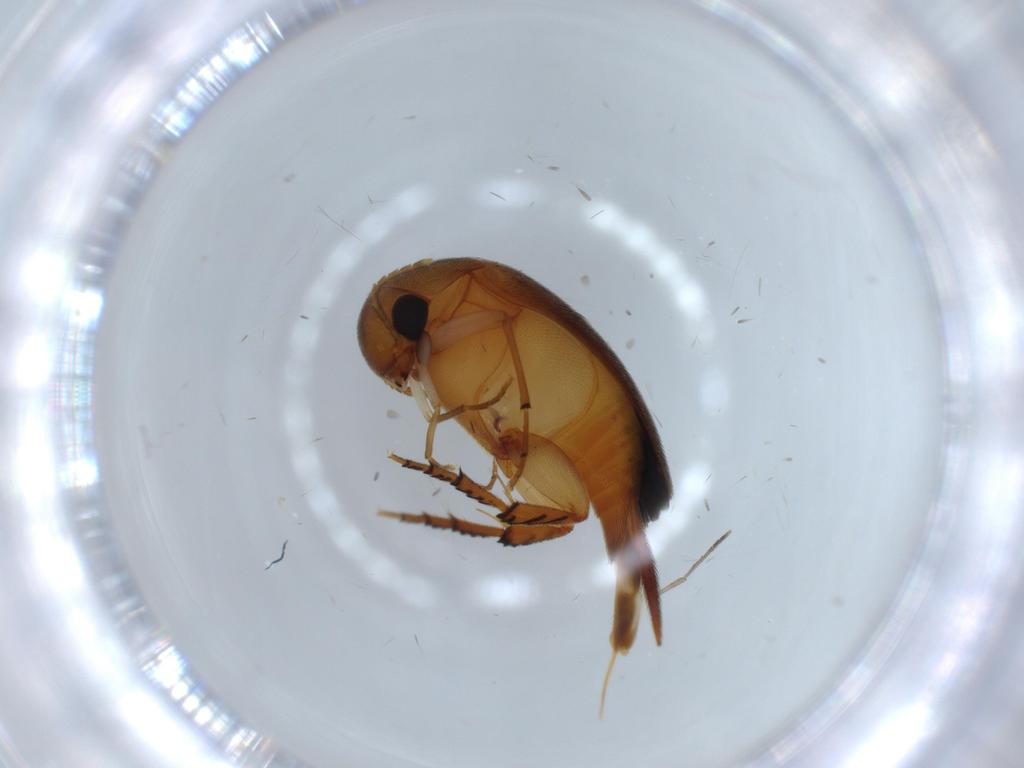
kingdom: Animalia
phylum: Arthropoda
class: Insecta
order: Coleoptera
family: Mordellidae
